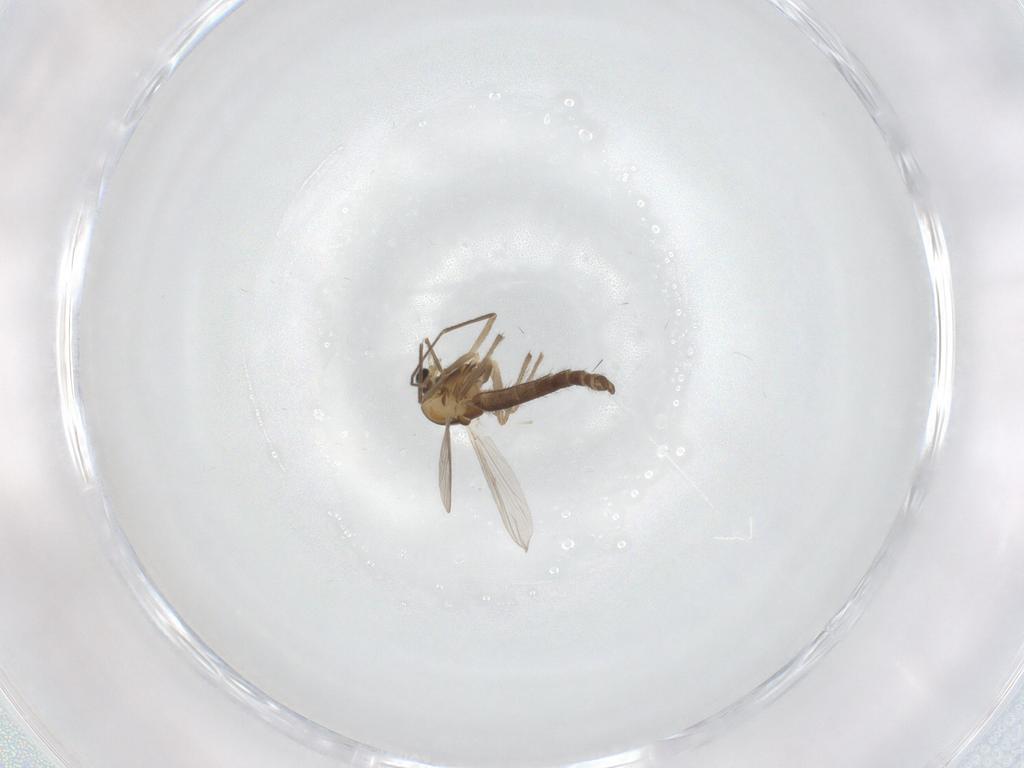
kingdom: Animalia
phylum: Arthropoda
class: Insecta
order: Diptera
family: Chironomidae
